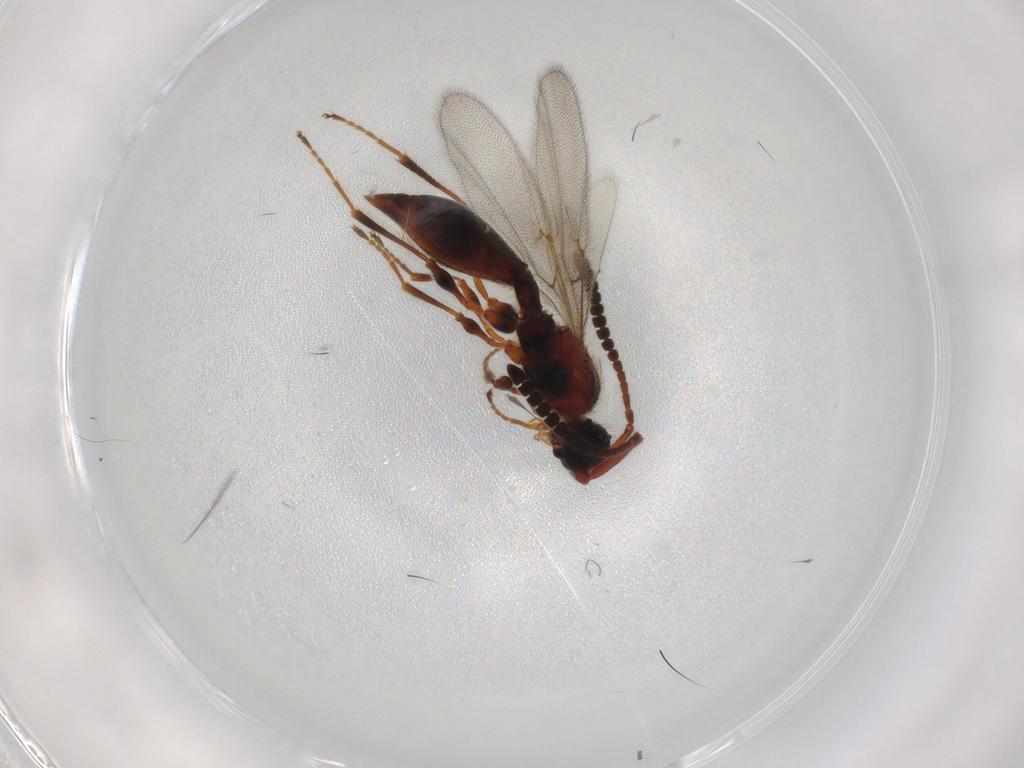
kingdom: Animalia
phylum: Arthropoda
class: Insecta
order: Hymenoptera
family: Diapriidae
